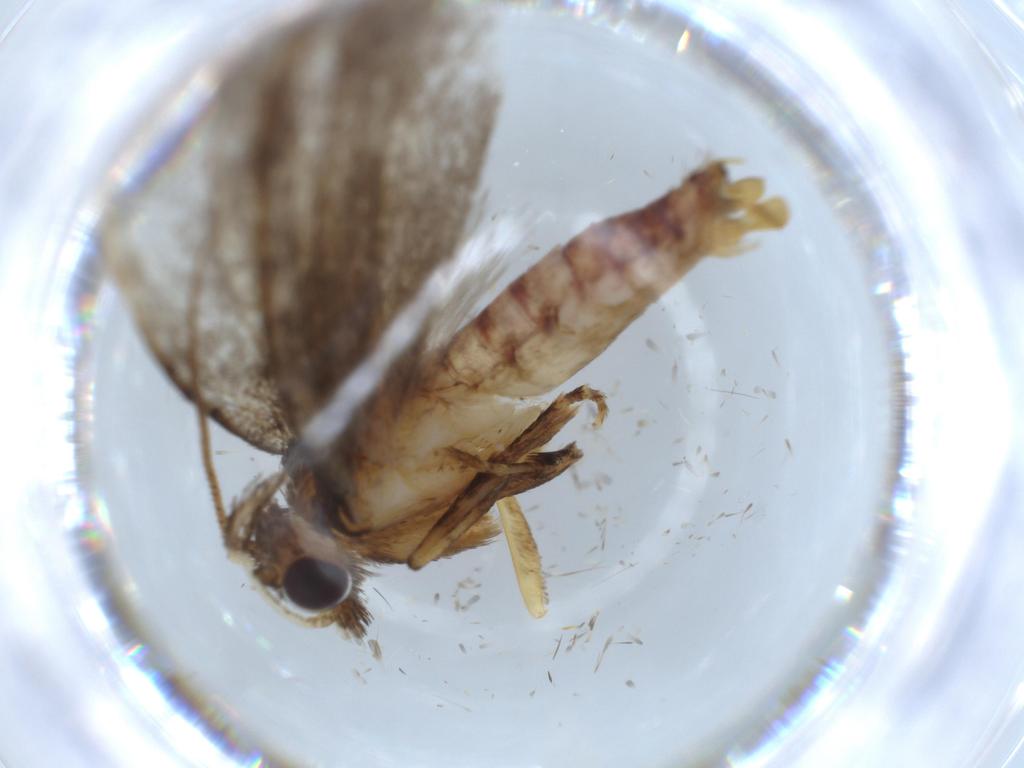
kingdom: Animalia
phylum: Arthropoda
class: Insecta
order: Lepidoptera
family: Tineidae
